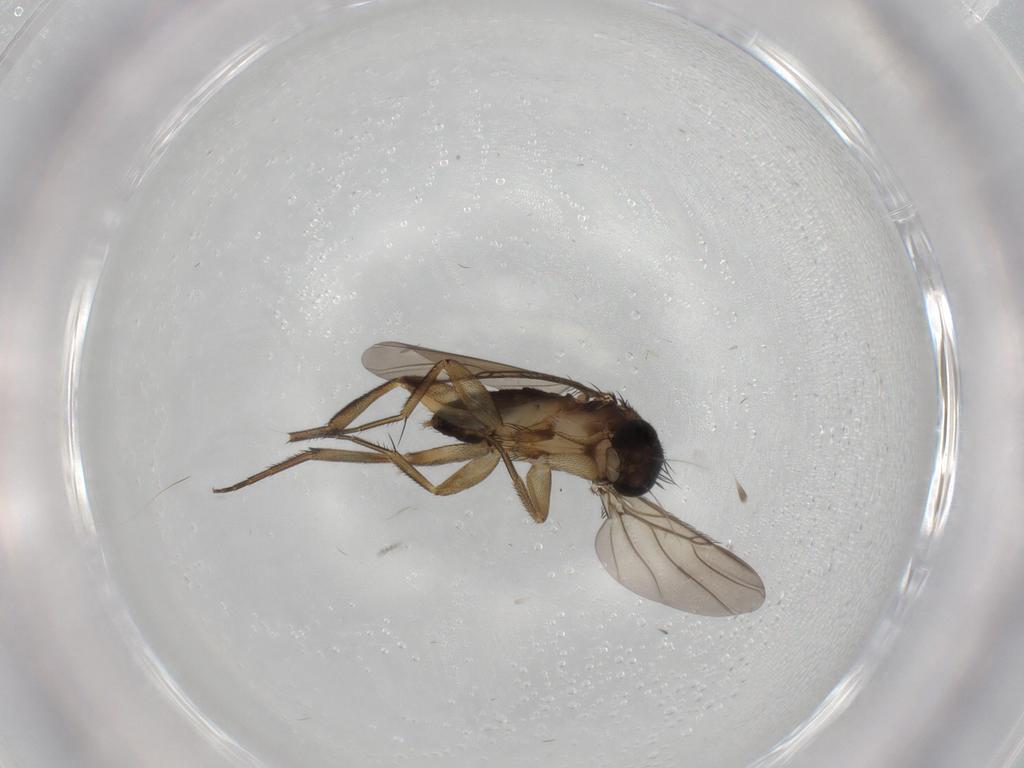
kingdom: Animalia
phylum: Arthropoda
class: Insecta
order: Diptera
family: Phoridae
